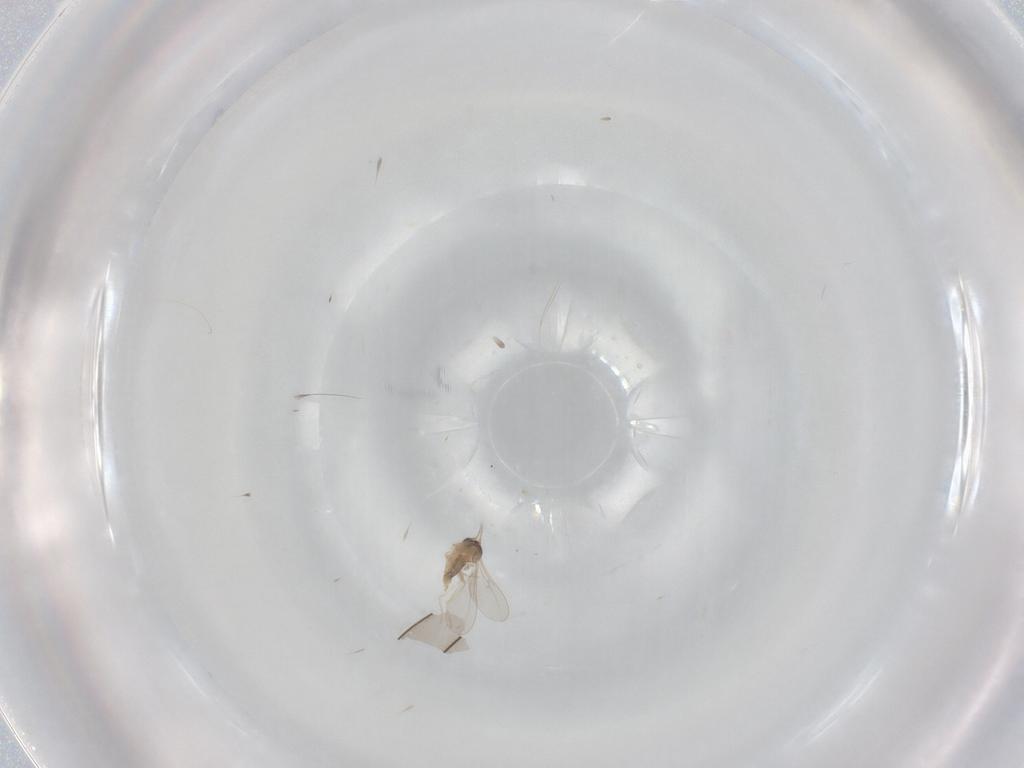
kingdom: Animalia
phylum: Arthropoda
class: Insecta
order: Diptera
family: Cecidomyiidae
